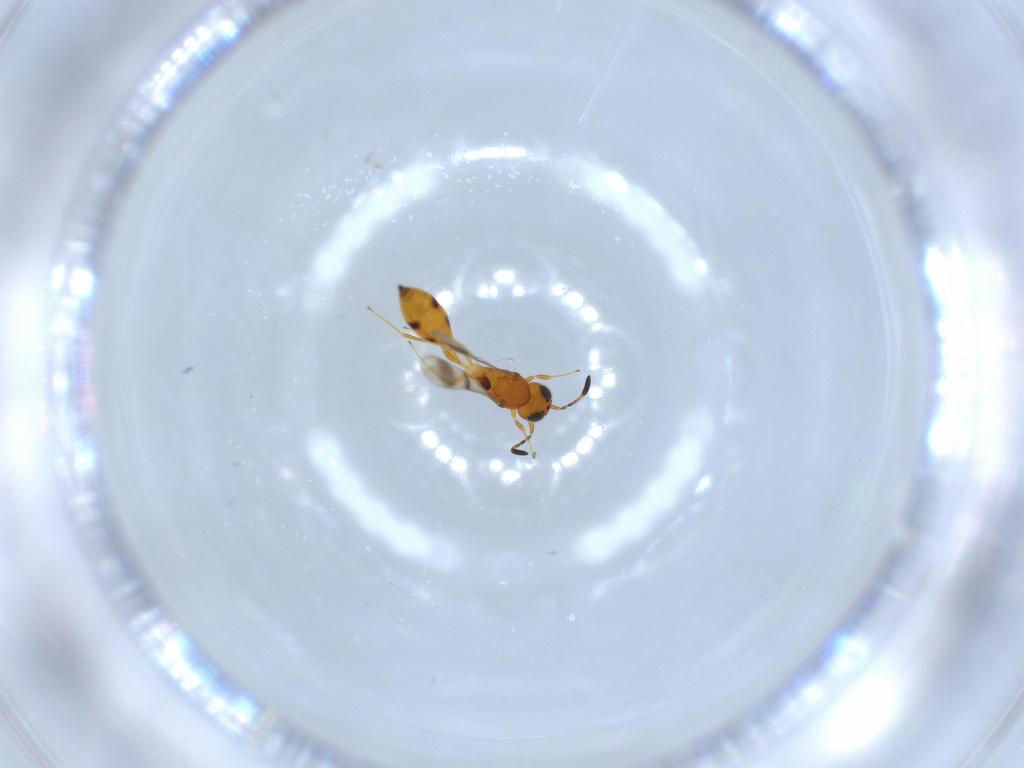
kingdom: Animalia
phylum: Arthropoda
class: Insecta
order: Hymenoptera
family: Scelionidae
